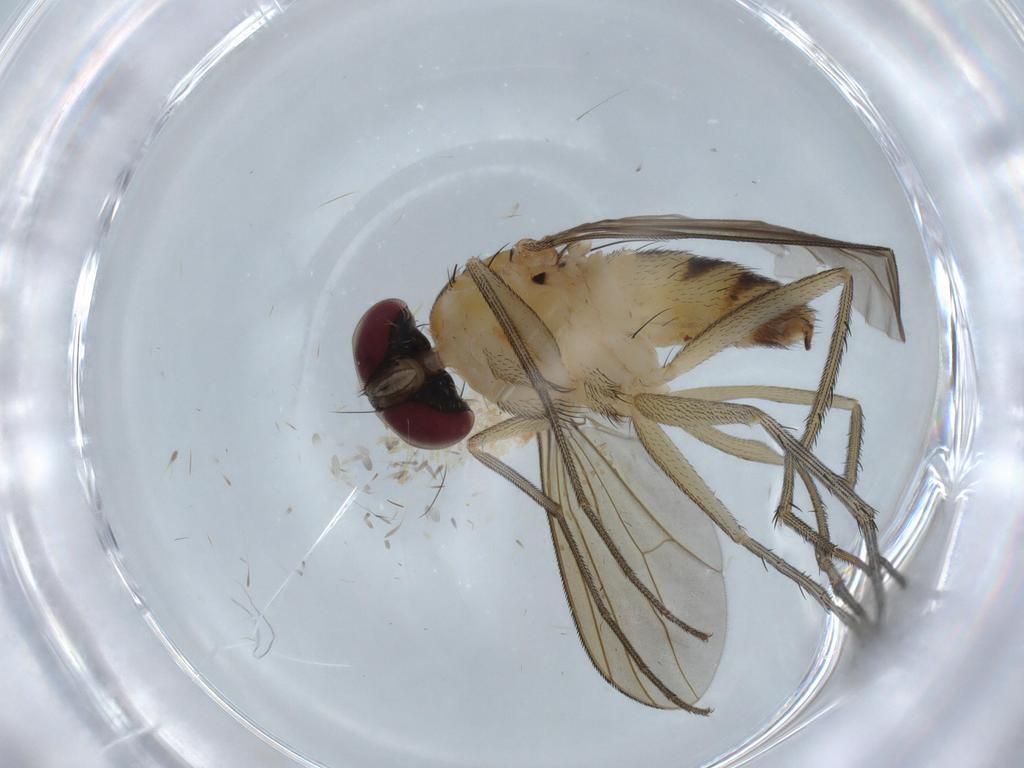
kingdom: Animalia
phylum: Arthropoda
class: Insecta
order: Diptera
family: Dolichopodidae
